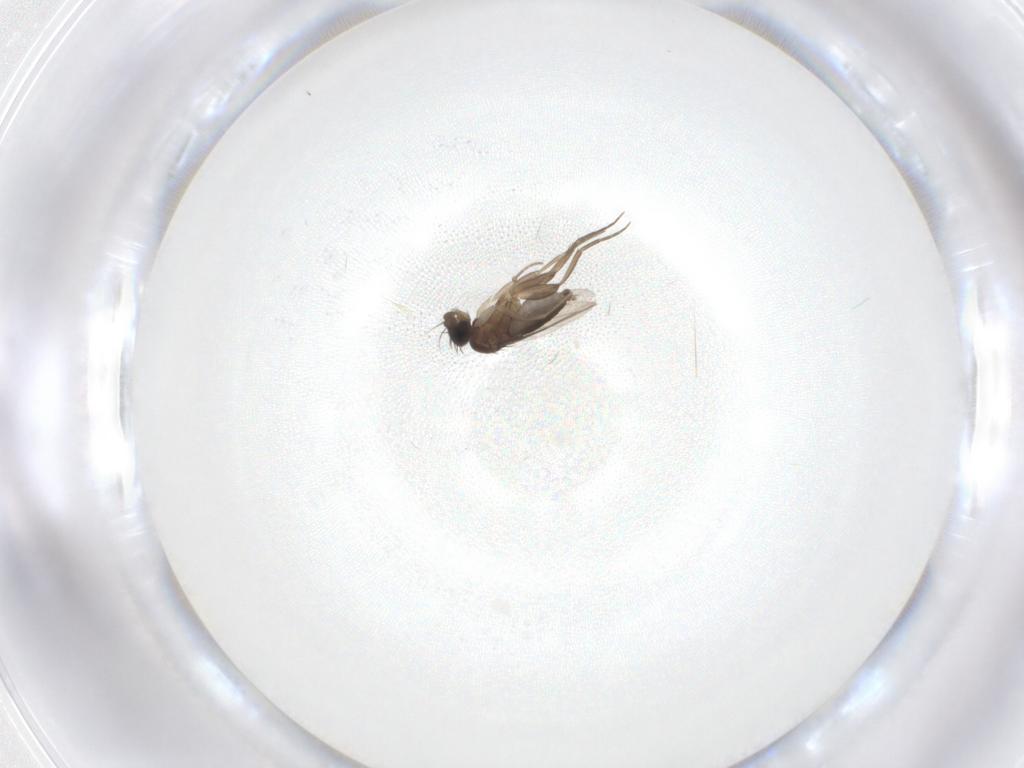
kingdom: Animalia
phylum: Arthropoda
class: Insecta
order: Diptera
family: Phoridae
